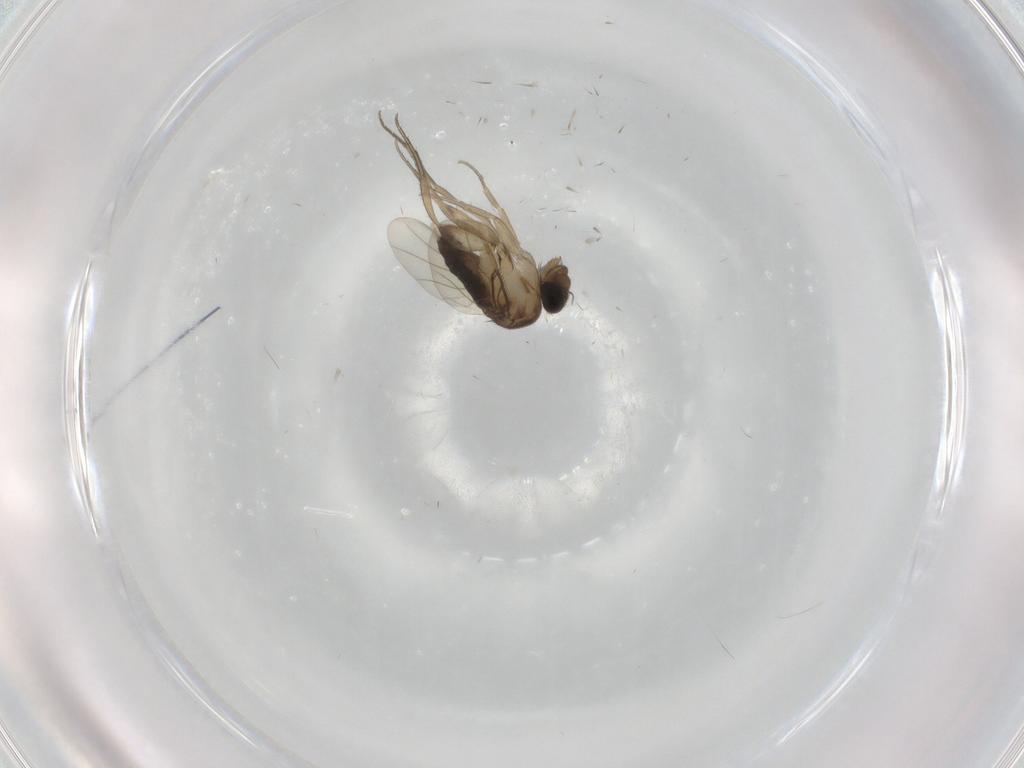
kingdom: Animalia
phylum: Arthropoda
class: Insecta
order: Diptera
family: Phoridae
